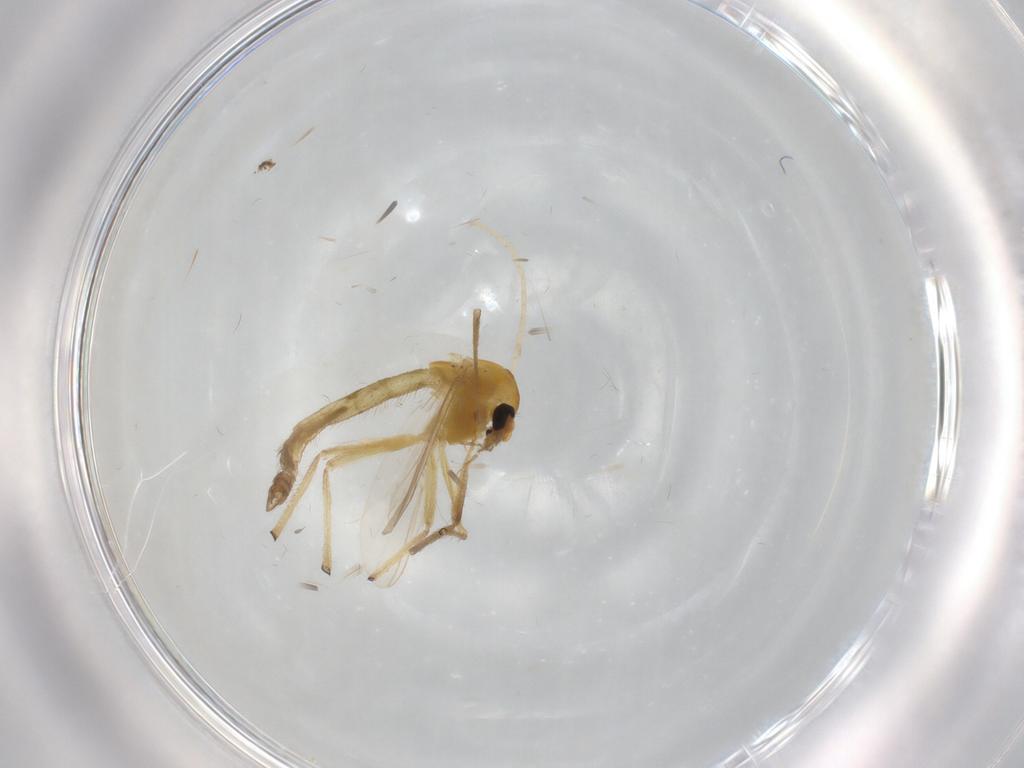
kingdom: Animalia
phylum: Arthropoda
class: Insecta
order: Diptera
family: Chironomidae
